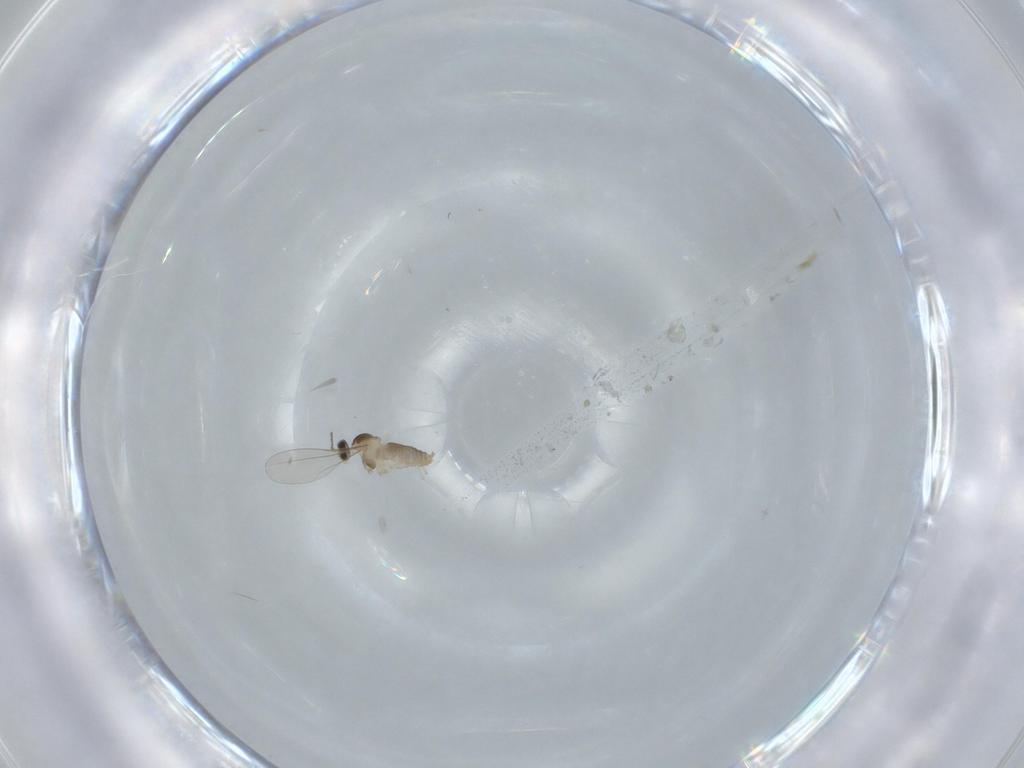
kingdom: Animalia
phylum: Arthropoda
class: Insecta
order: Diptera
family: Cecidomyiidae
